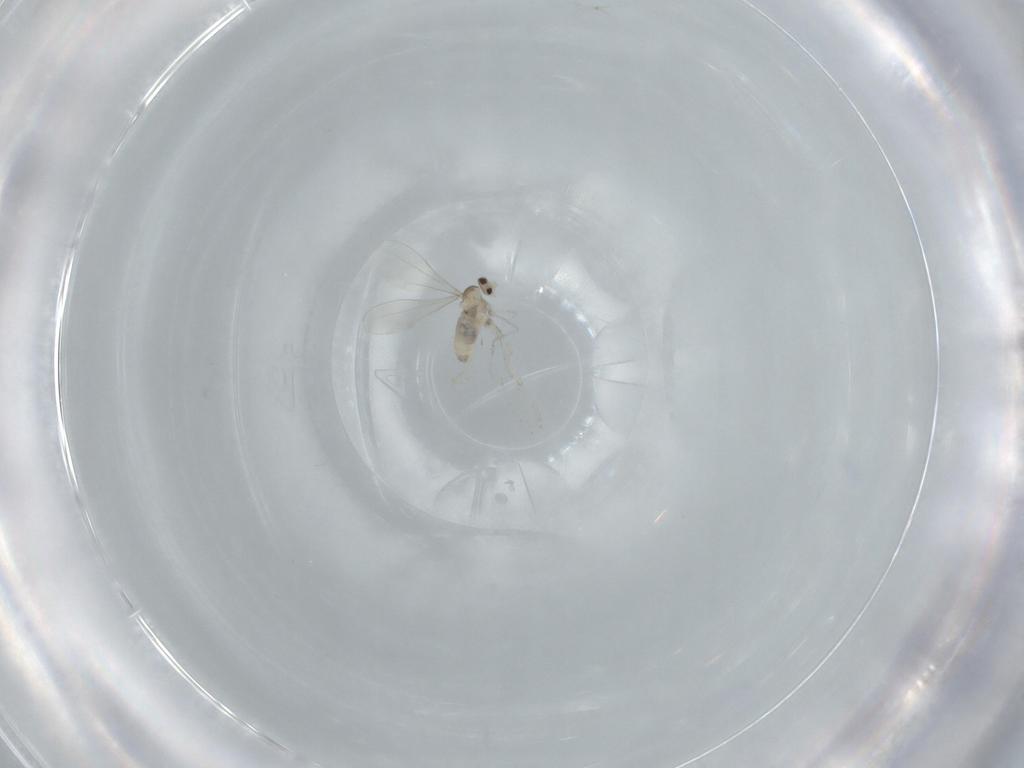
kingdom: Animalia
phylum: Arthropoda
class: Insecta
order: Diptera
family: Cecidomyiidae
